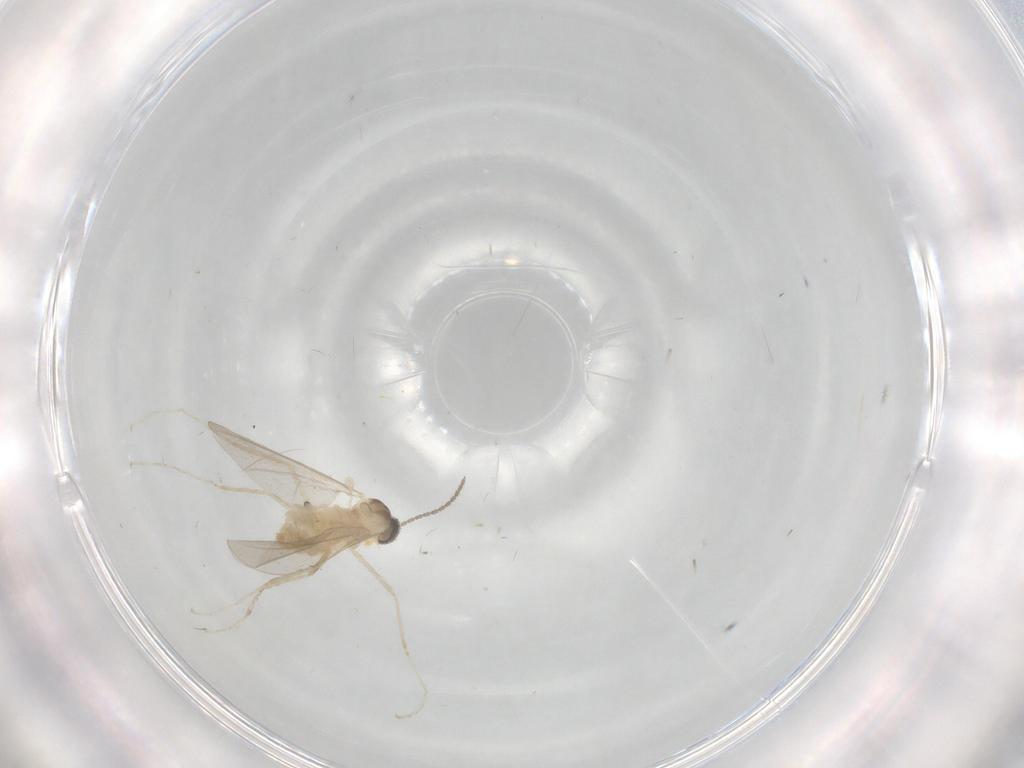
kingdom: Animalia
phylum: Arthropoda
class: Insecta
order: Diptera
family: Cecidomyiidae
